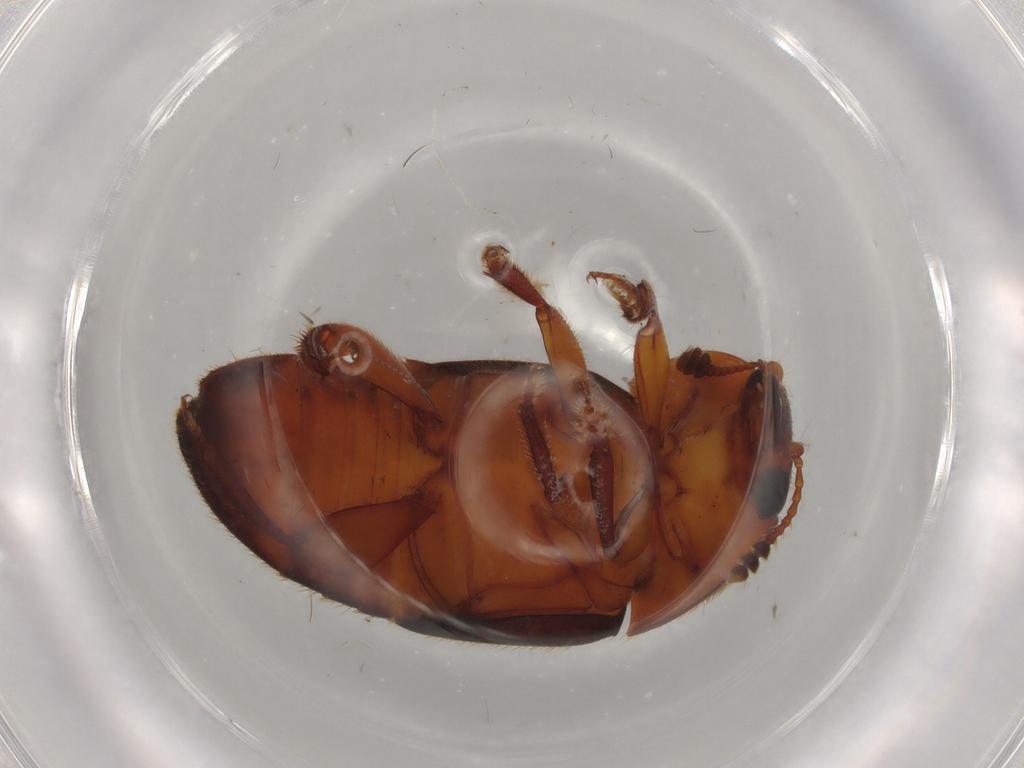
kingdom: Animalia
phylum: Arthropoda
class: Insecta
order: Coleoptera
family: Nitidulidae
